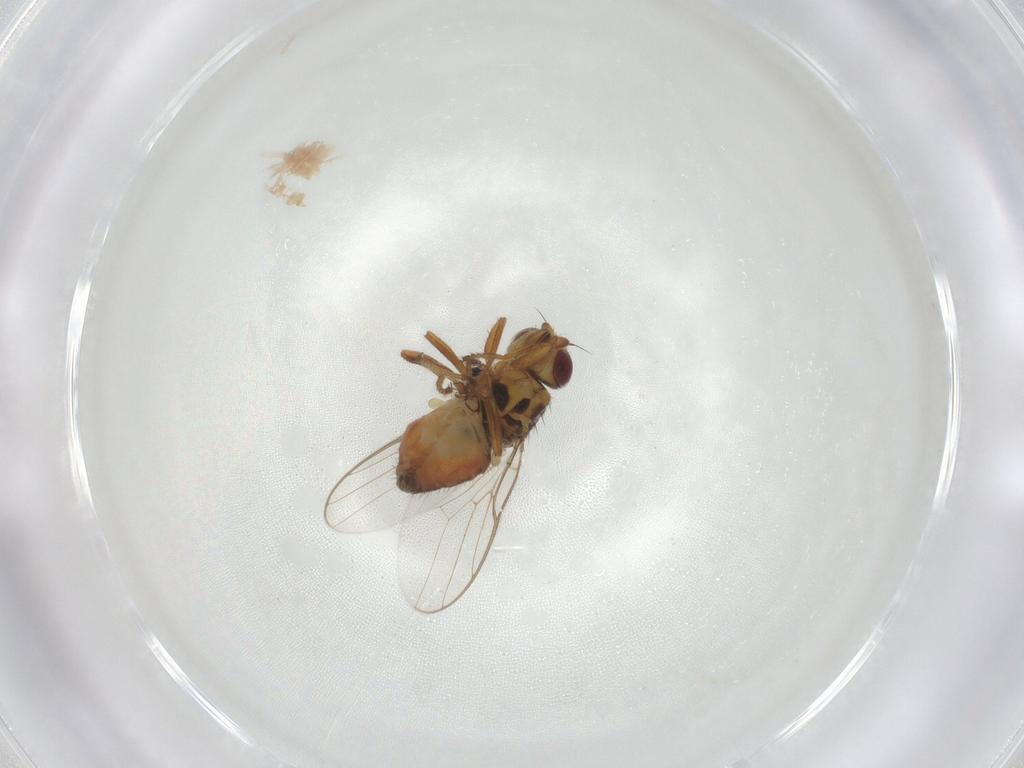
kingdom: Animalia
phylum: Arthropoda
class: Insecta
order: Diptera
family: Chloropidae
